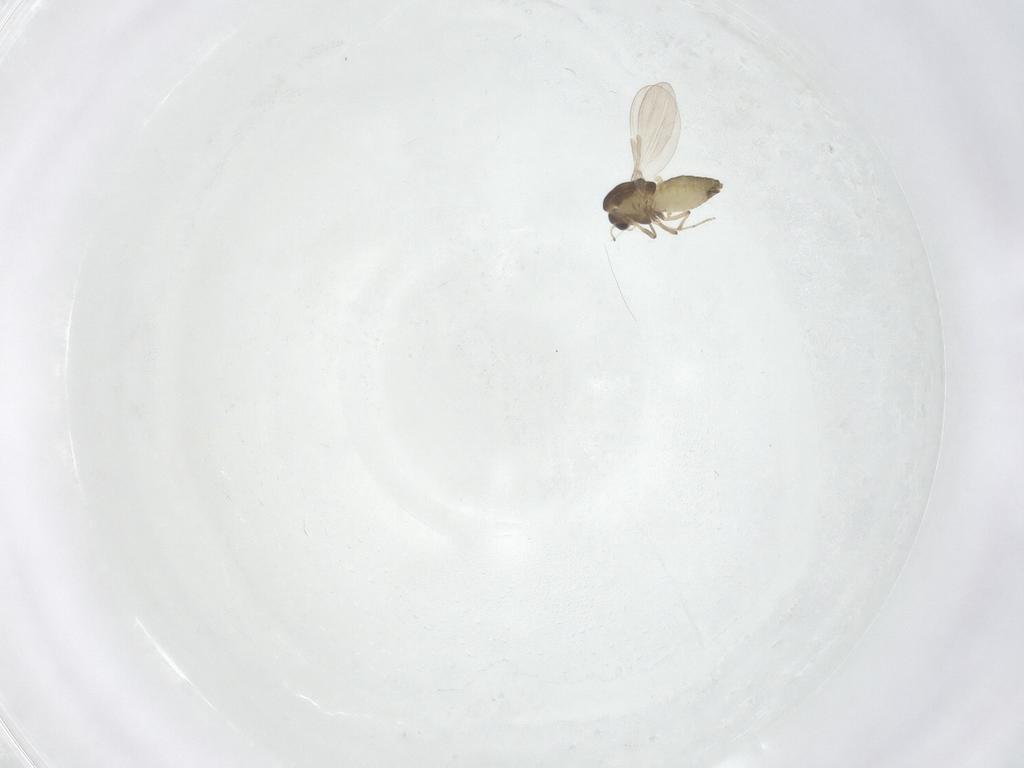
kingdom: Animalia
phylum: Arthropoda
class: Insecta
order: Diptera
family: Chironomidae
